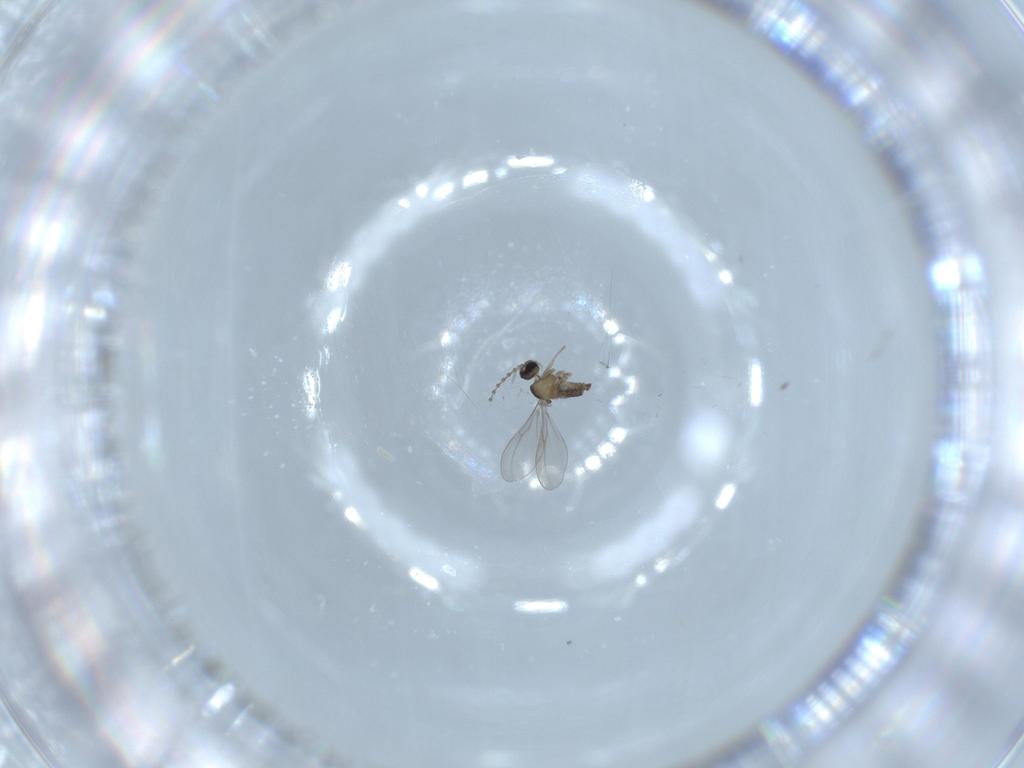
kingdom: Animalia
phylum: Arthropoda
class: Insecta
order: Diptera
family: Cecidomyiidae
